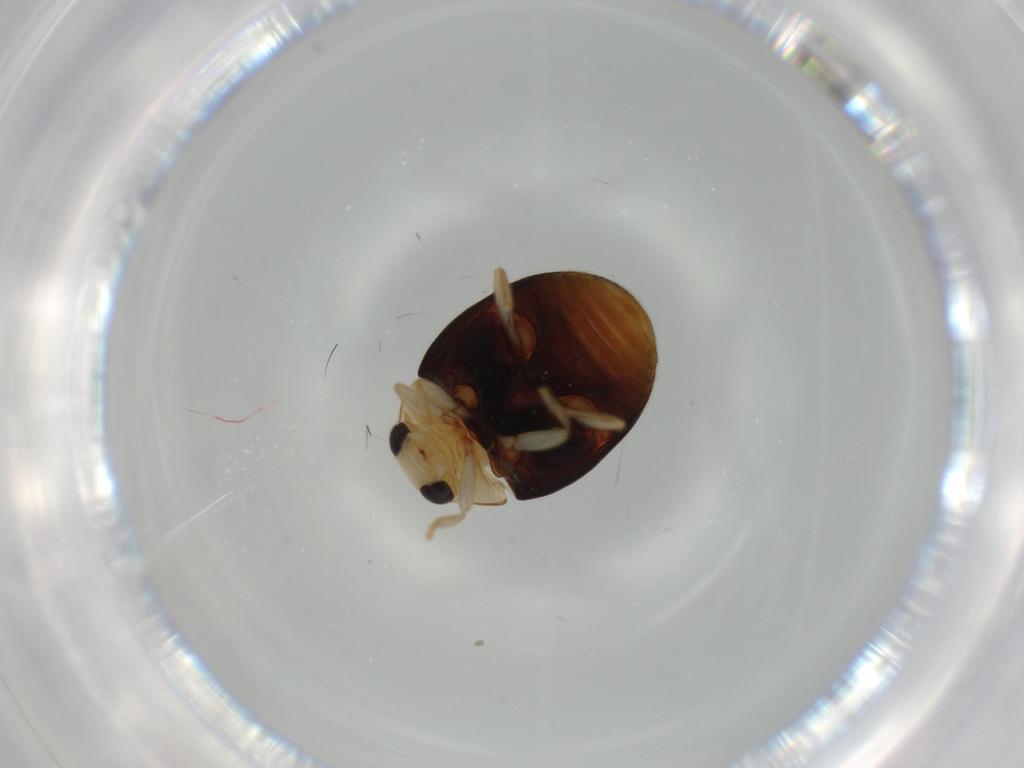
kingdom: Animalia
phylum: Arthropoda
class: Insecta
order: Coleoptera
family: Coccinellidae
